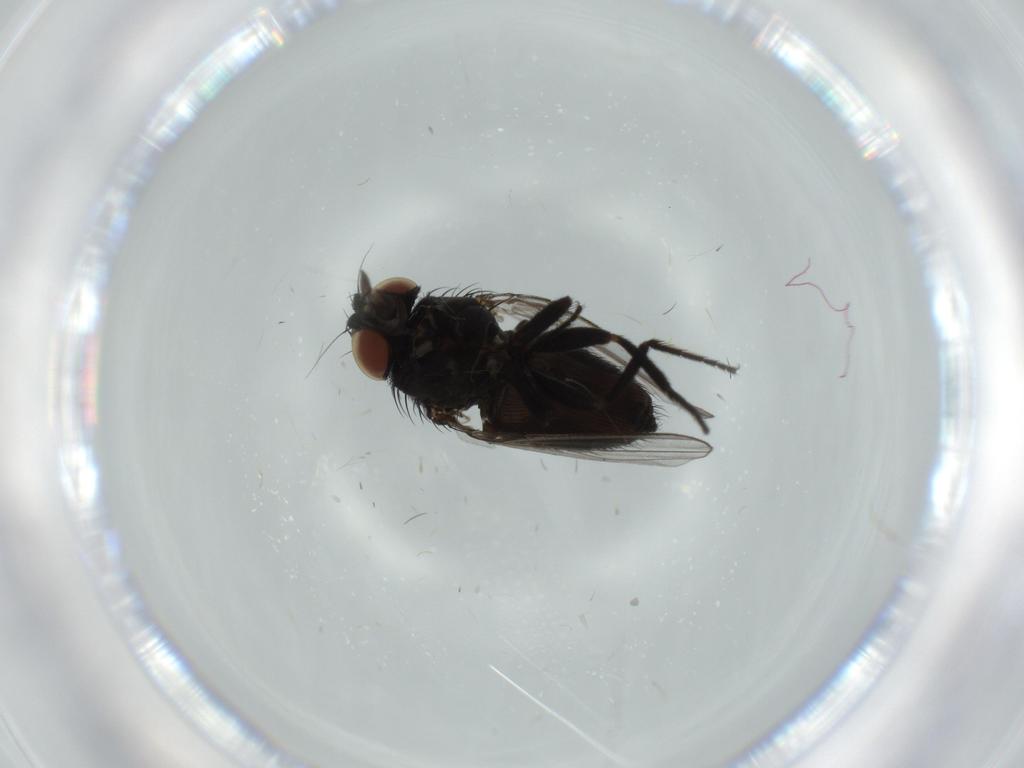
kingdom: Animalia
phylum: Arthropoda
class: Insecta
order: Diptera
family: Milichiidae
